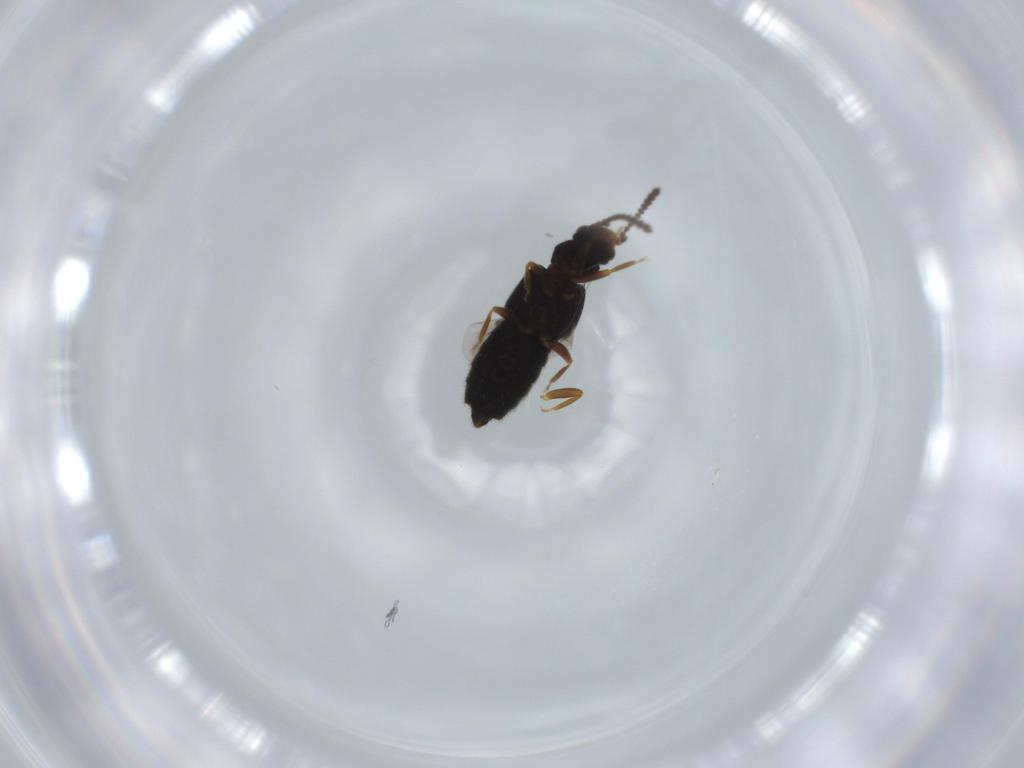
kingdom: Animalia
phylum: Arthropoda
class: Insecta
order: Coleoptera
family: Staphylinidae
